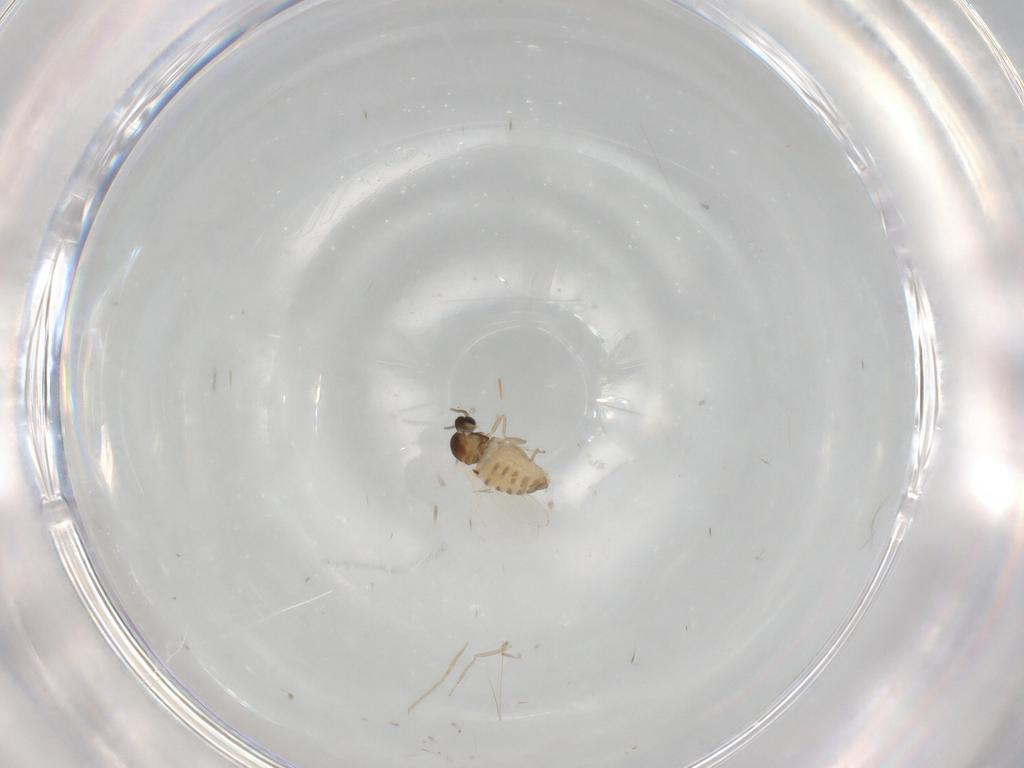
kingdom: Animalia
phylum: Arthropoda
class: Insecta
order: Diptera
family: Cecidomyiidae
